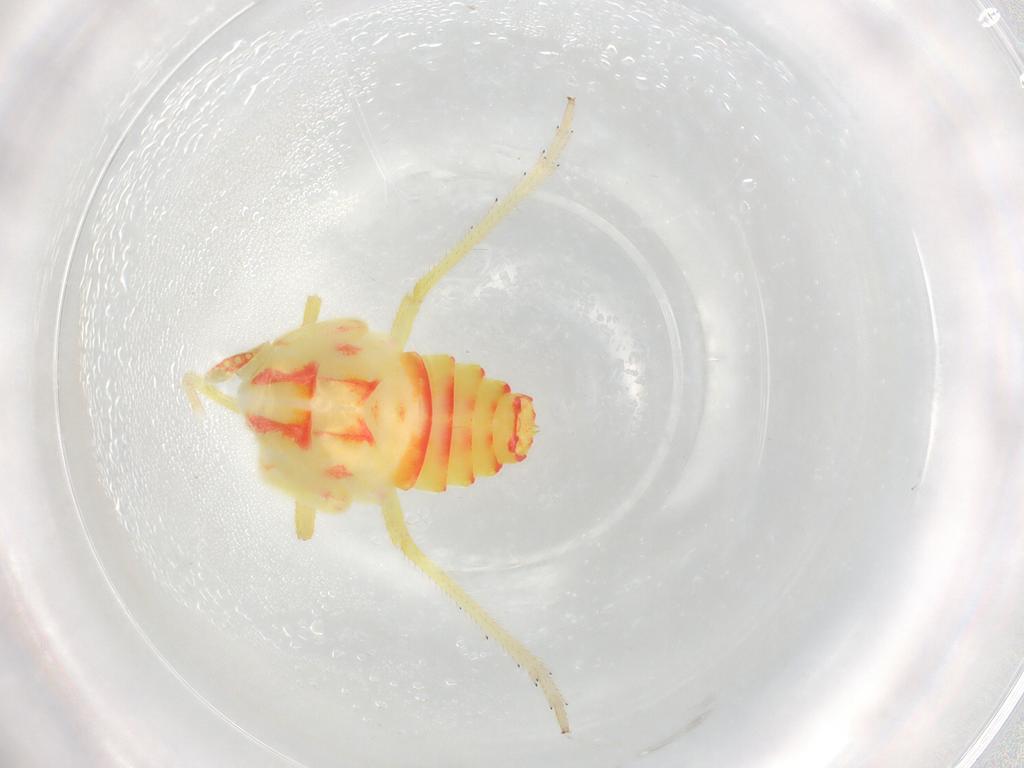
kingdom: Animalia
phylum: Arthropoda
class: Insecta
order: Hemiptera
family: Tropiduchidae
